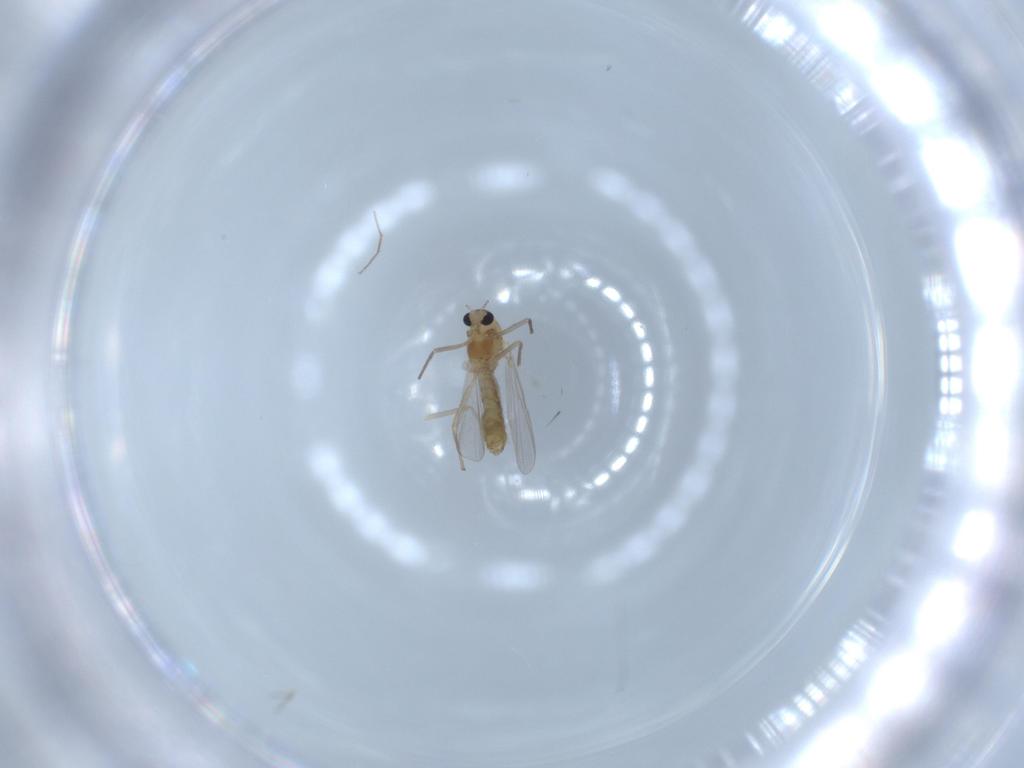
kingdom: Animalia
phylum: Arthropoda
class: Insecta
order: Diptera
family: Chironomidae
